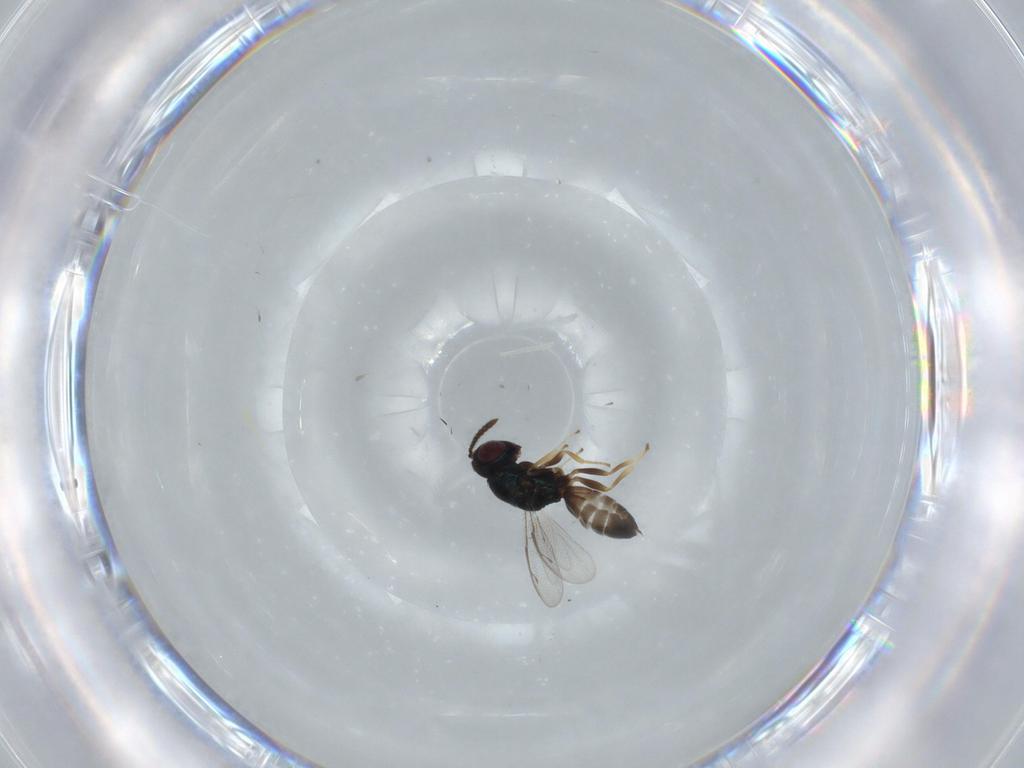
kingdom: Animalia
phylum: Arthropoda
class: Insecta
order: Hymenoptera
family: Pteromalidae
